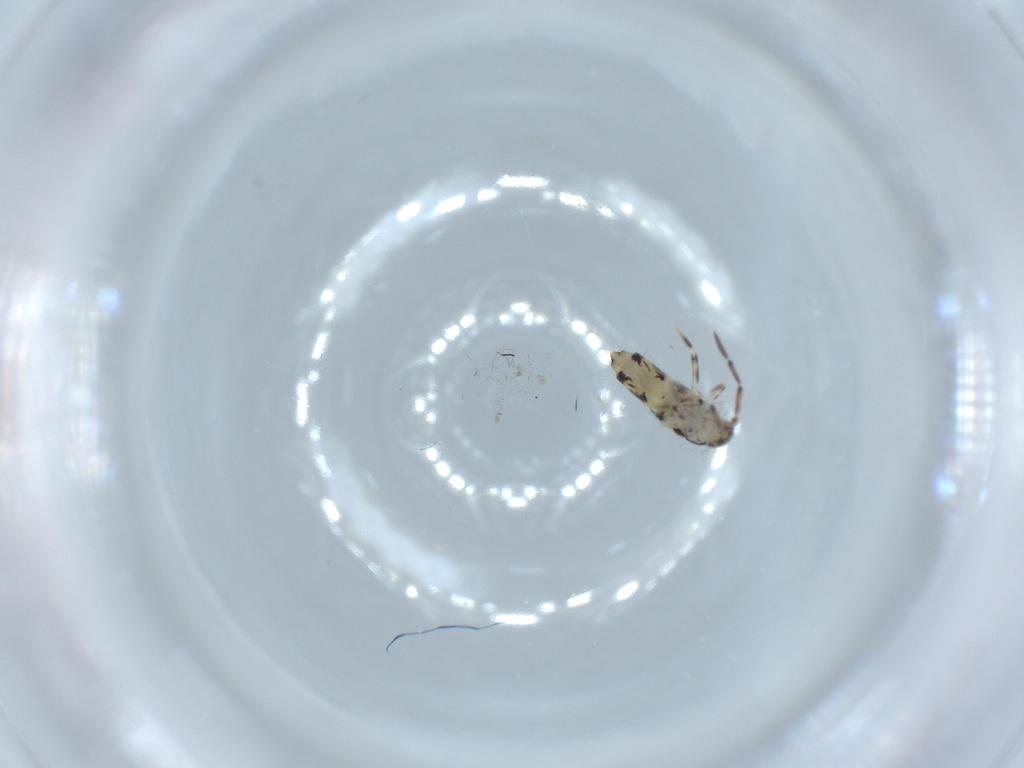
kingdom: Animalia
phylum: Arthropoda
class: Collembola
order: Entomobryomorpha
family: Entomobryidae
